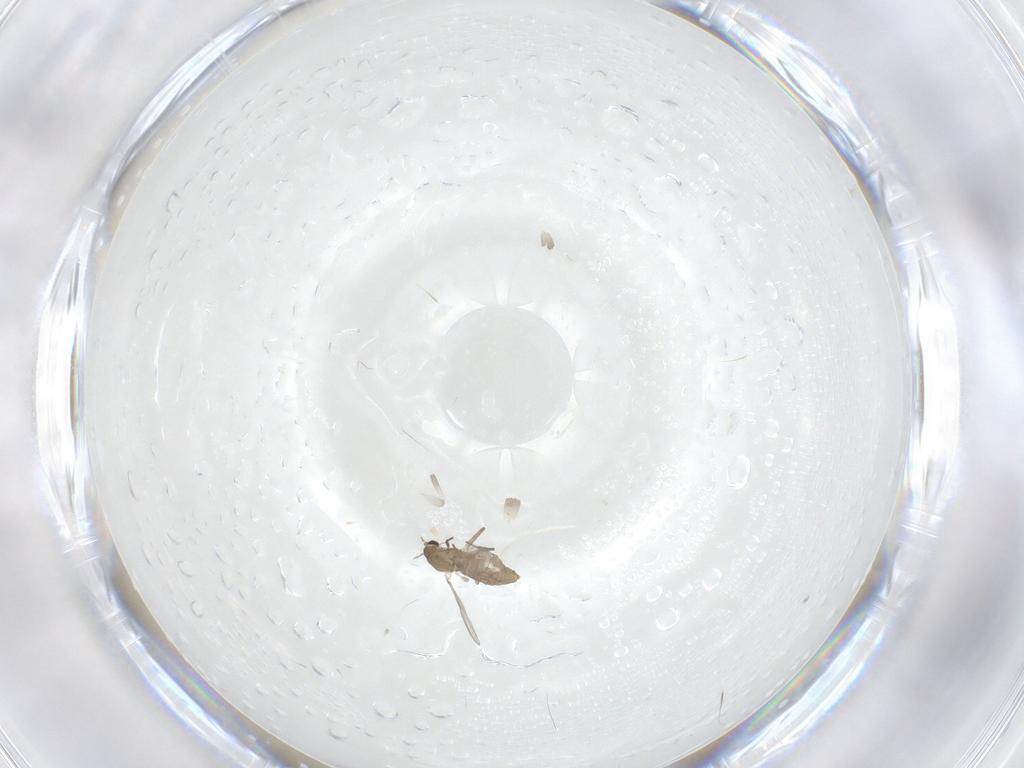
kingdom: Animalia
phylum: Arthropoda
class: Insecta
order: Diptera
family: Chironomidae
